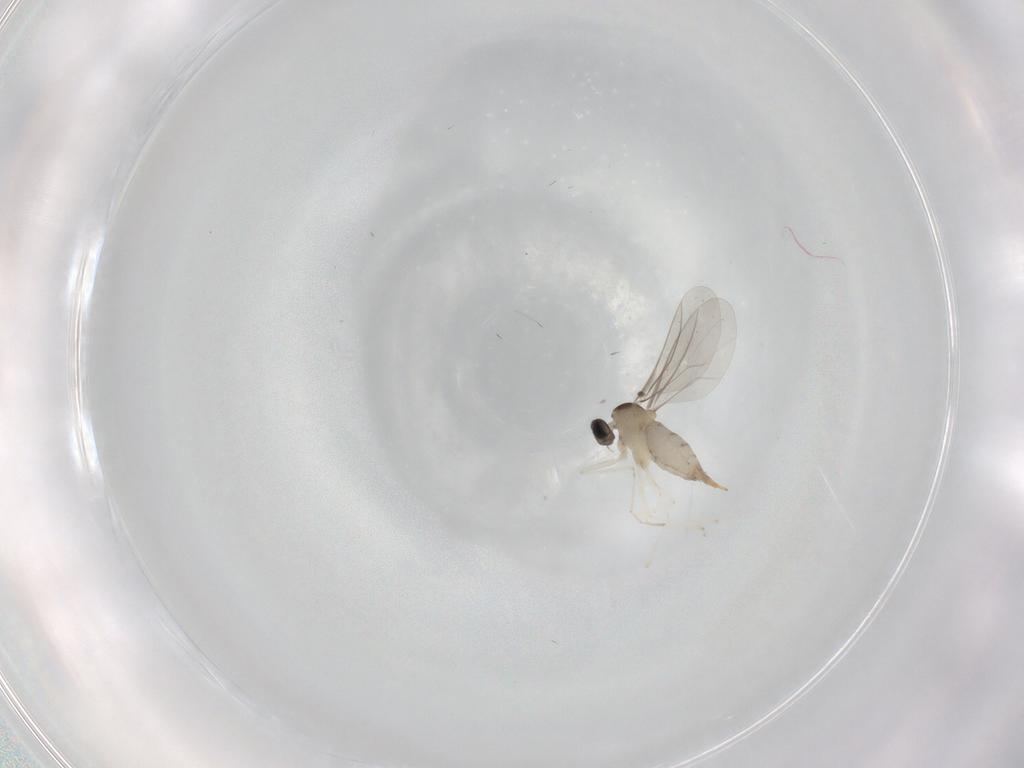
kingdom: Animalia
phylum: Arthropoda
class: Insecta
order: Diptera
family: Cecidomyiidae
